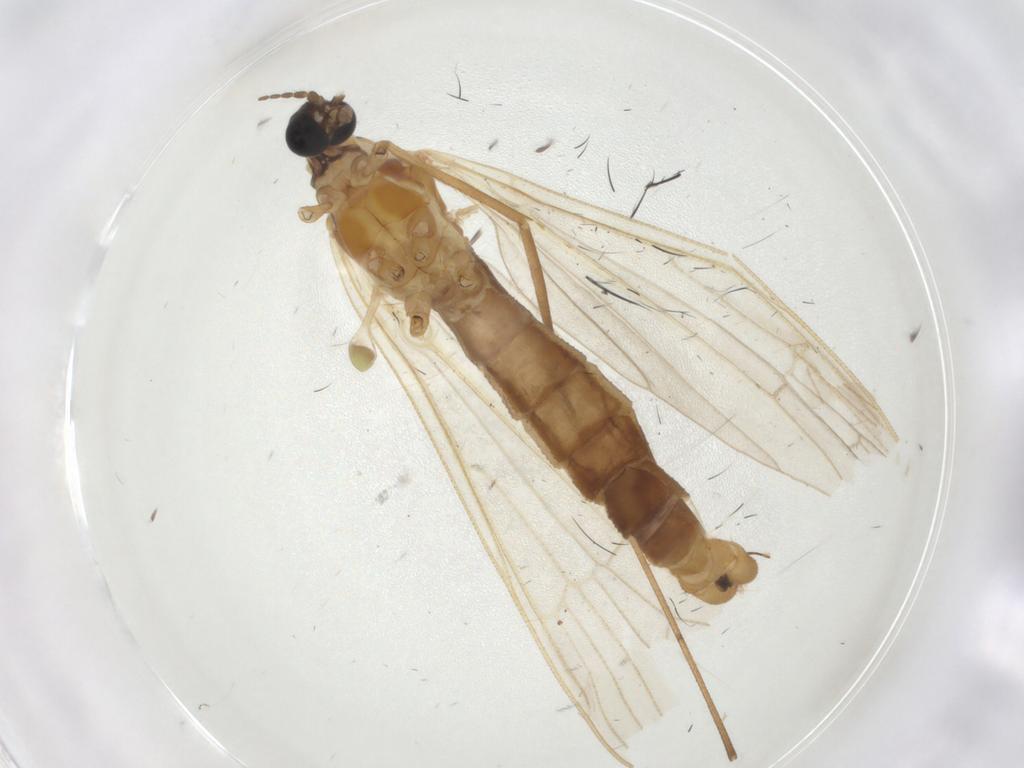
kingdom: Animalia
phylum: Arthropoda
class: Insecta
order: Diptera
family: Limoniidae
